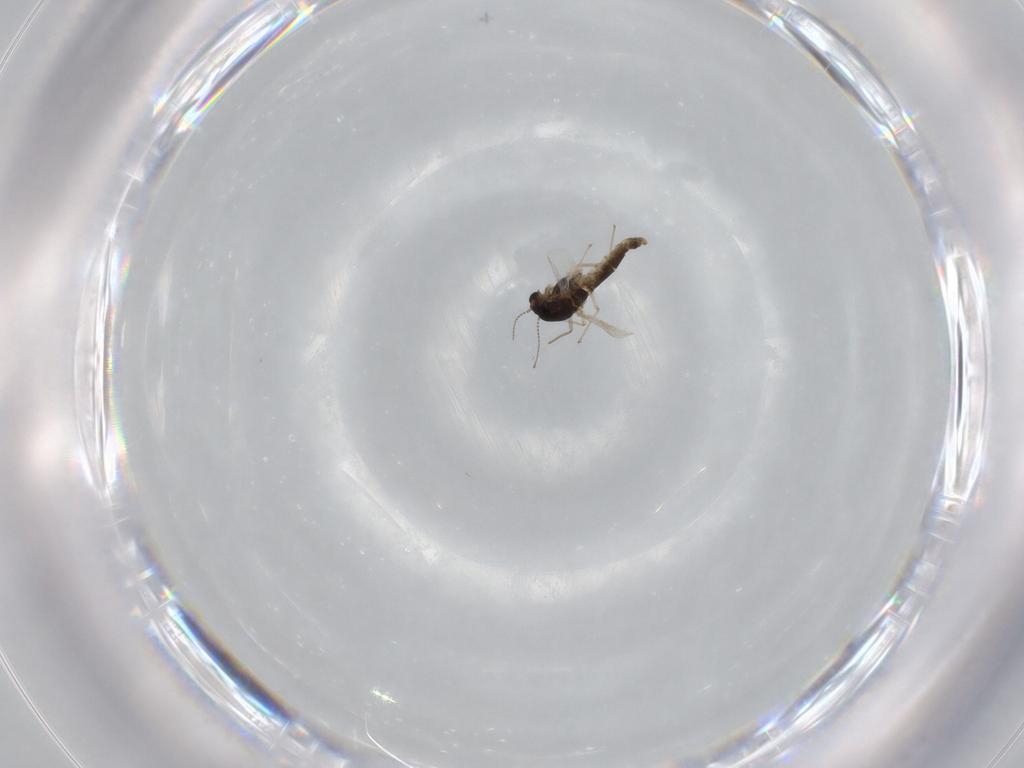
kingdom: Animalia
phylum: Arthropoda
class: Insecta
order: Diptera
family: Chironomidae
